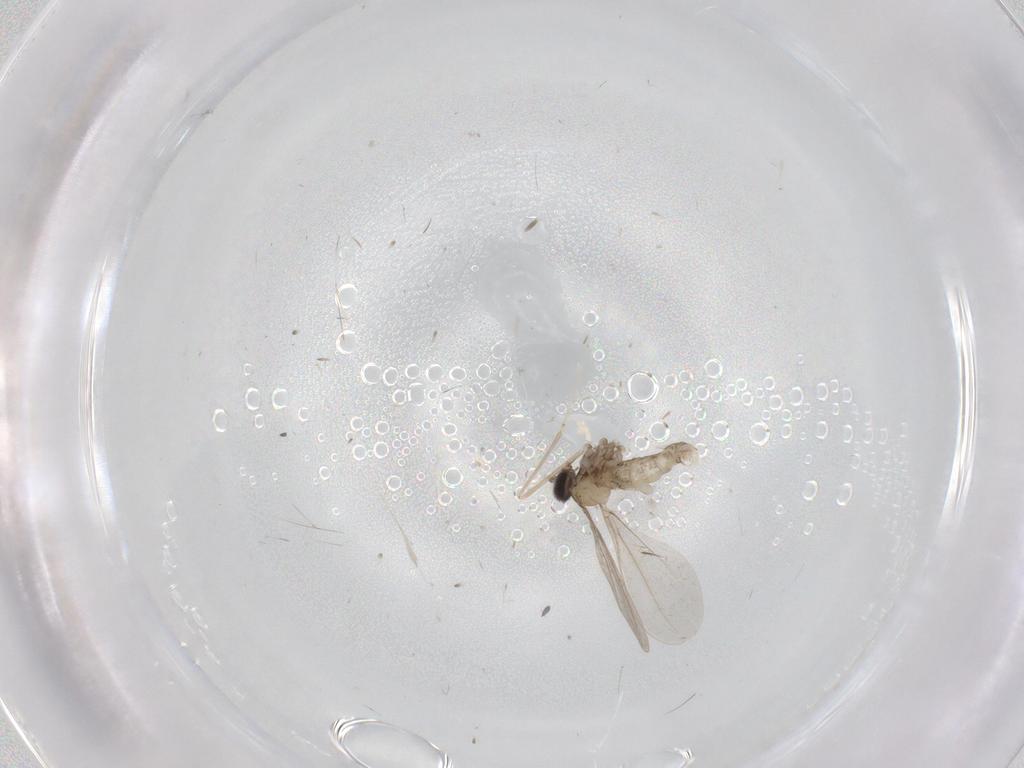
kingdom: Animalia
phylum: Arthropoda
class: Insecta
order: Diptera
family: Cecidomyiidae
